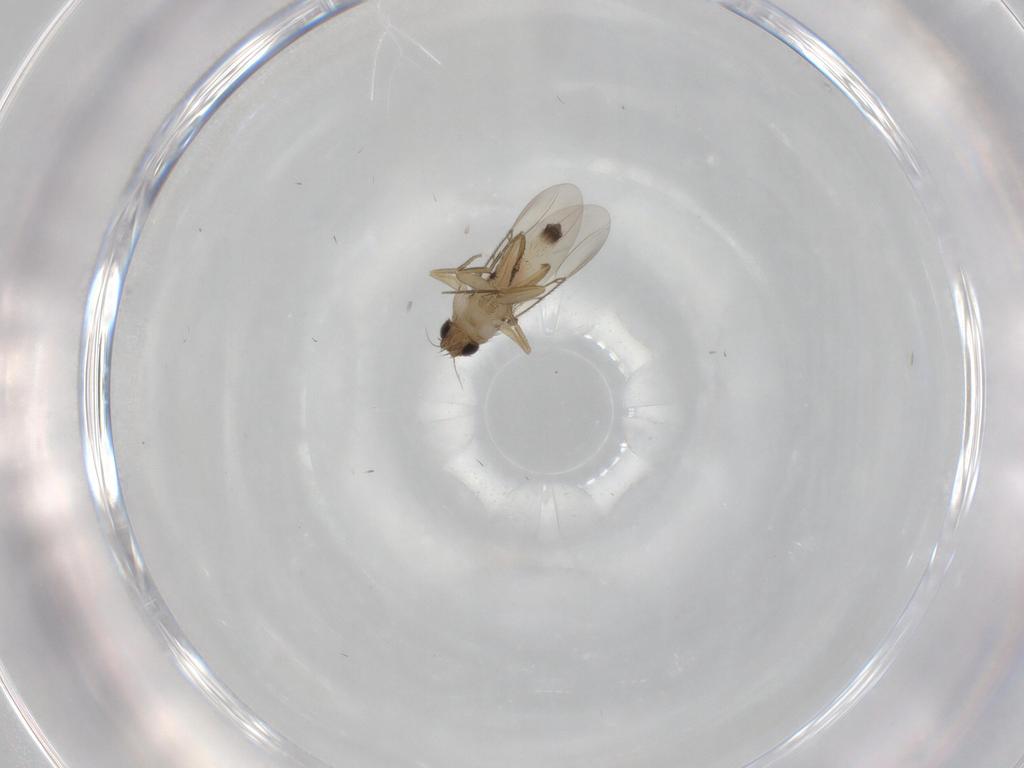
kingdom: Animalia
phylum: Arthropoda
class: Insecta
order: Diptera
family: Phoridae
